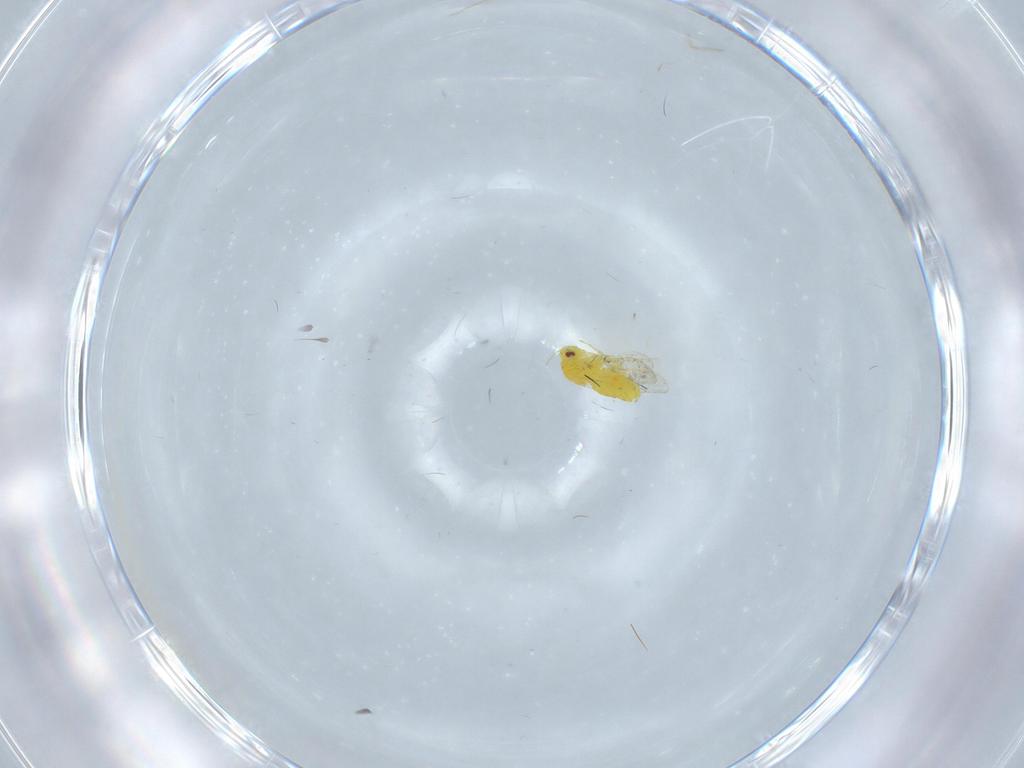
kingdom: Animalia
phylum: Arthropoda
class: Insecta
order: Hemiptera
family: Aleyrodidae
